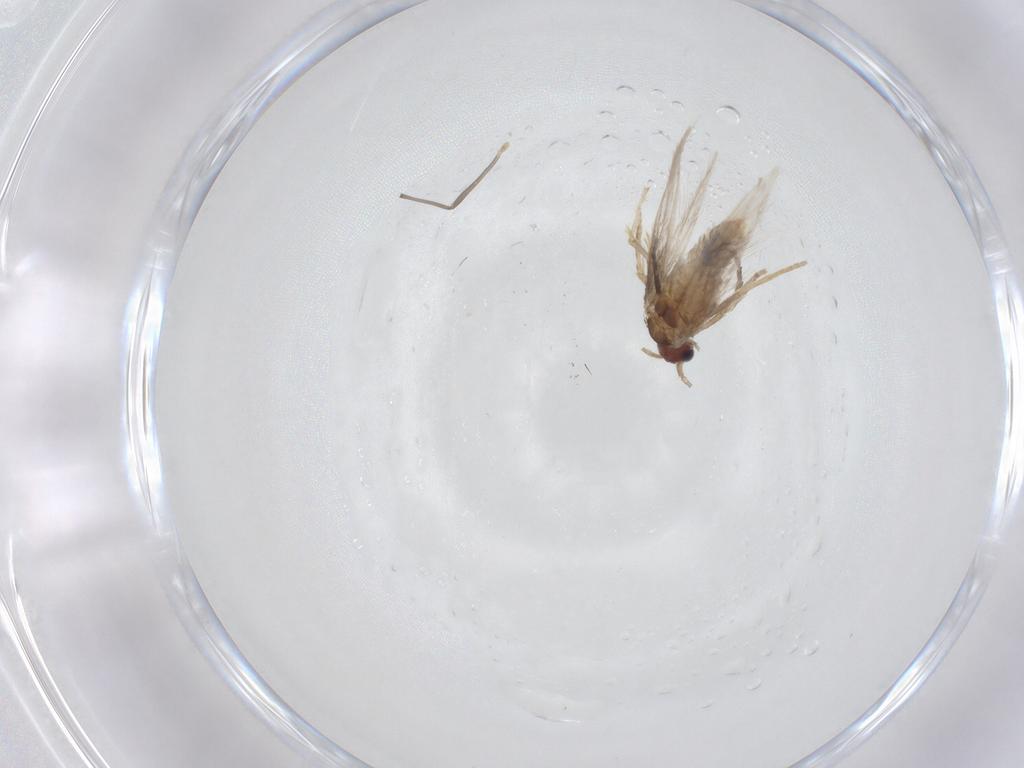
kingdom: Animalia
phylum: Arthropoda
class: Insecta
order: Lepidoptera
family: Nepticulidae
